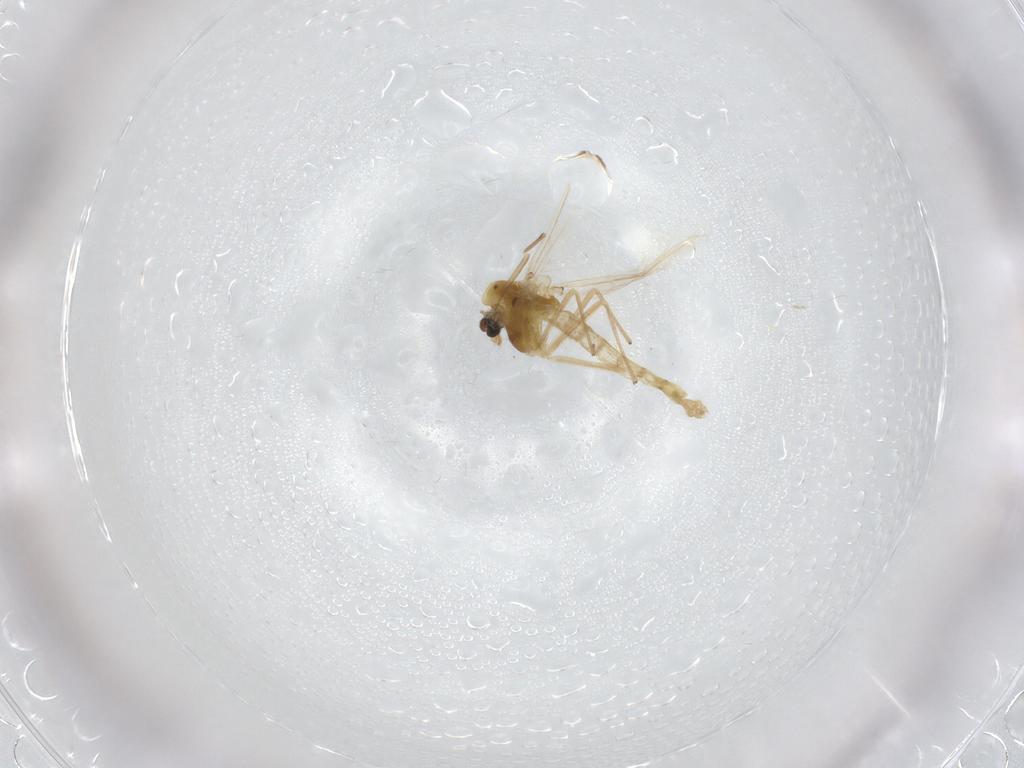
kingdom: Animalia
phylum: Arthropoda
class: Insecta
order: Diptera
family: Chironomidae
